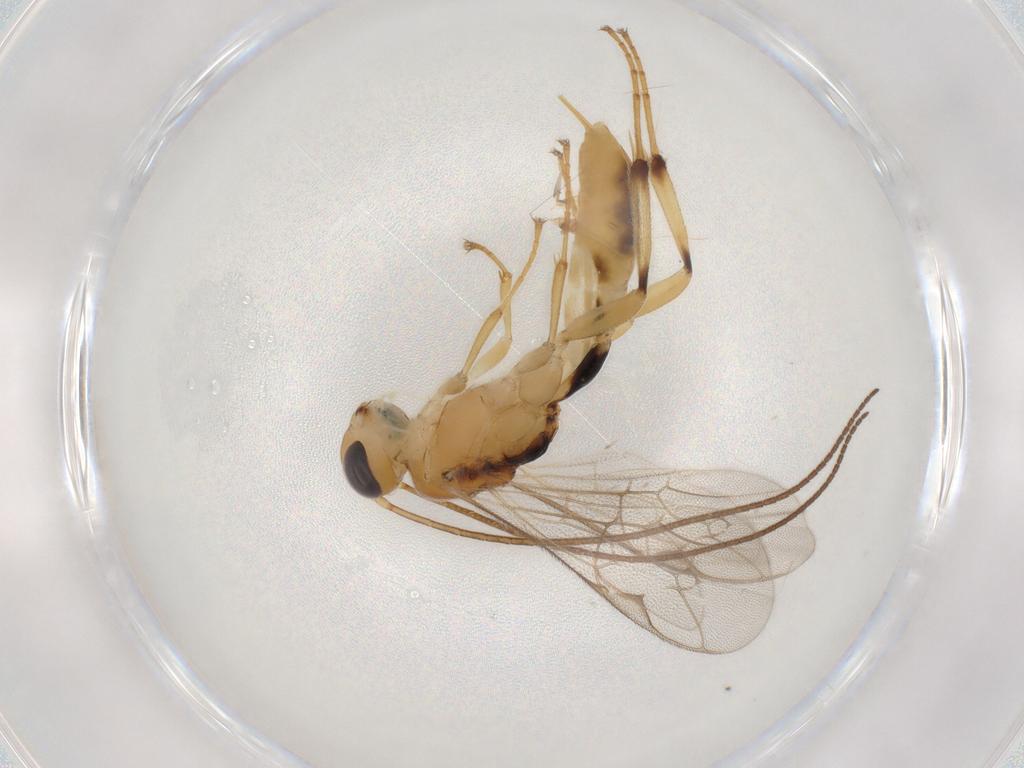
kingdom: Animalia
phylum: Arthropoda
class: Insecta
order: Hymenoptera
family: Ichneumonidae
